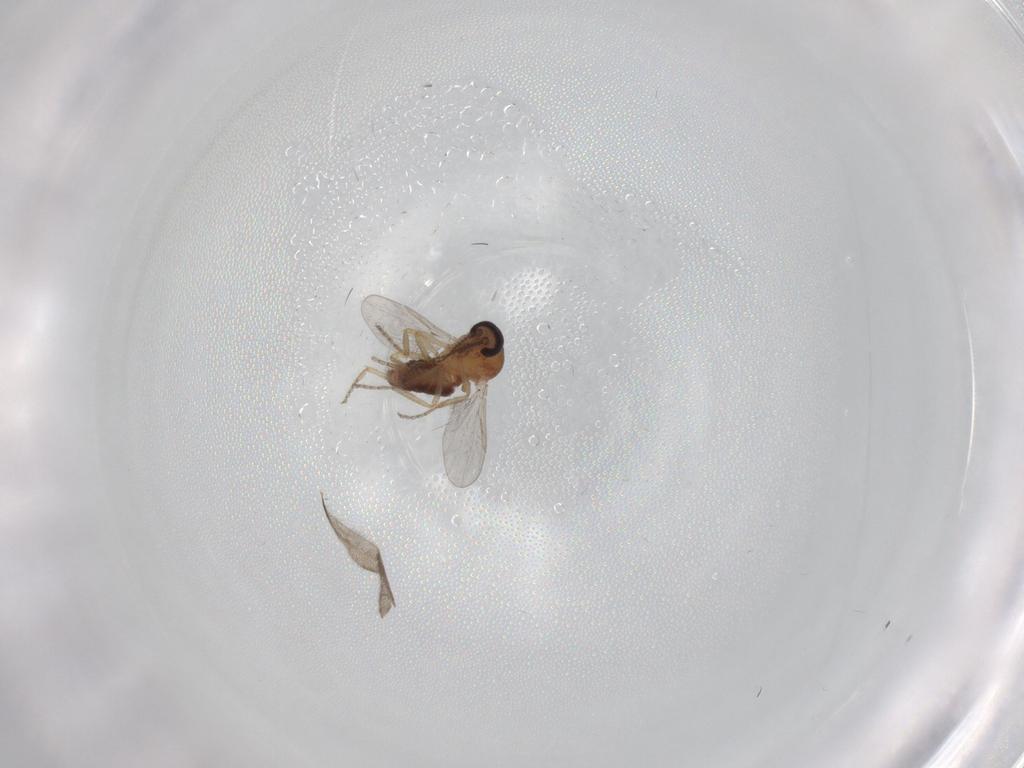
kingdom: Animalia
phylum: Arthropoda
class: Insecta
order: Diptera
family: Ceratopogonidae
